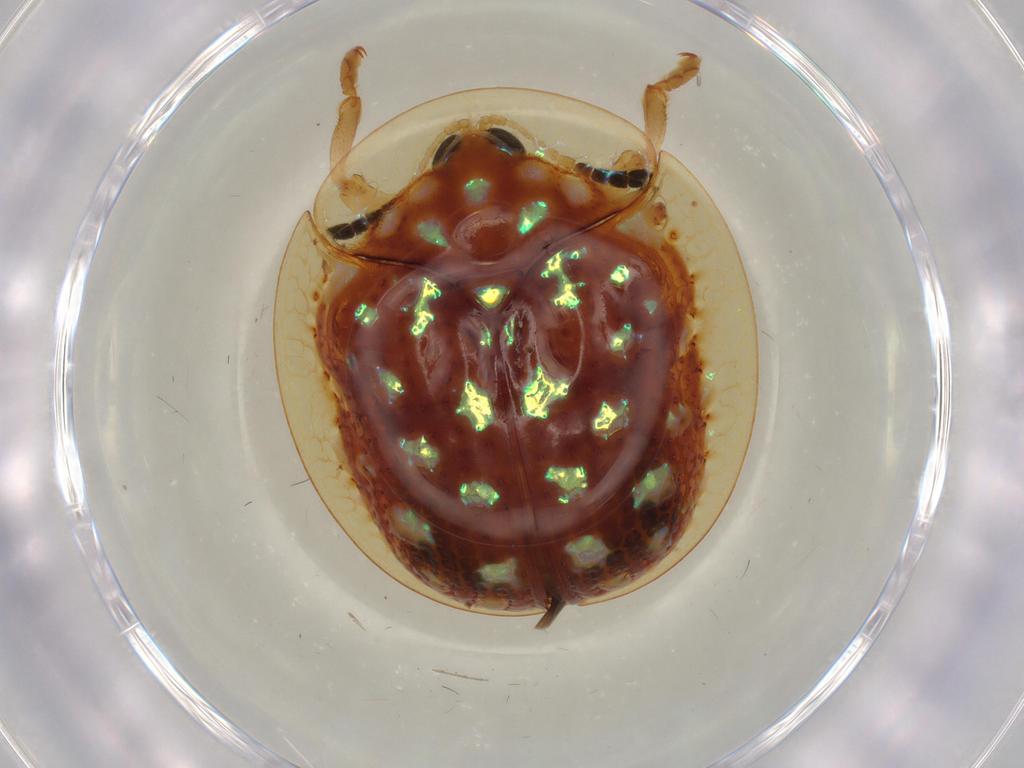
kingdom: Animalia
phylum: Arthropoda
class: Insecta
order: Coleoptera
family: Chrysomelidae
